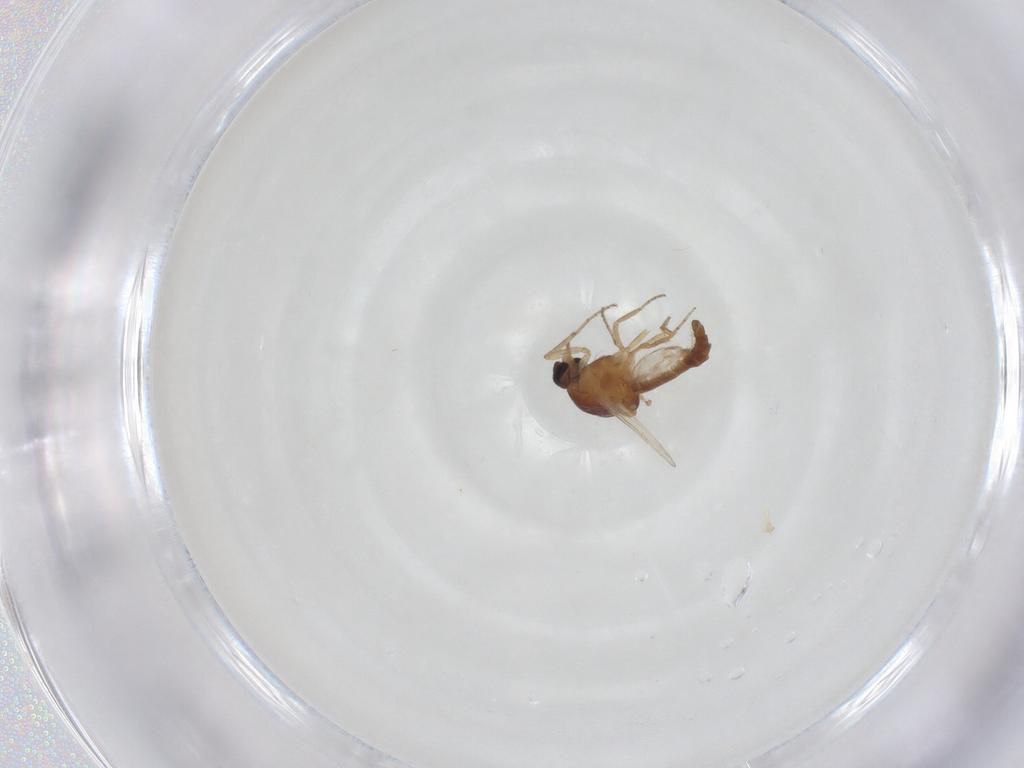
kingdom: Animalia
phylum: Arthropoda
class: Insecta
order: Diptera
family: Ceratopogonidae
